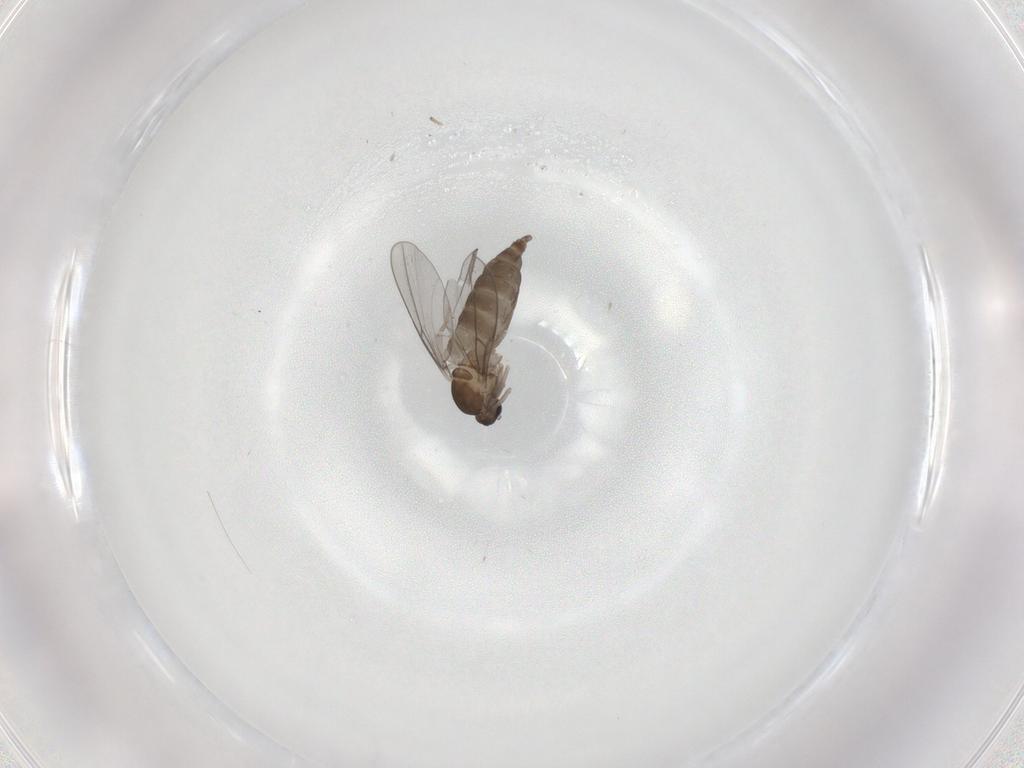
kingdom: Animalia
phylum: Arthropoda
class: Insecta
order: Diptera
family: Cecidomyiidae
